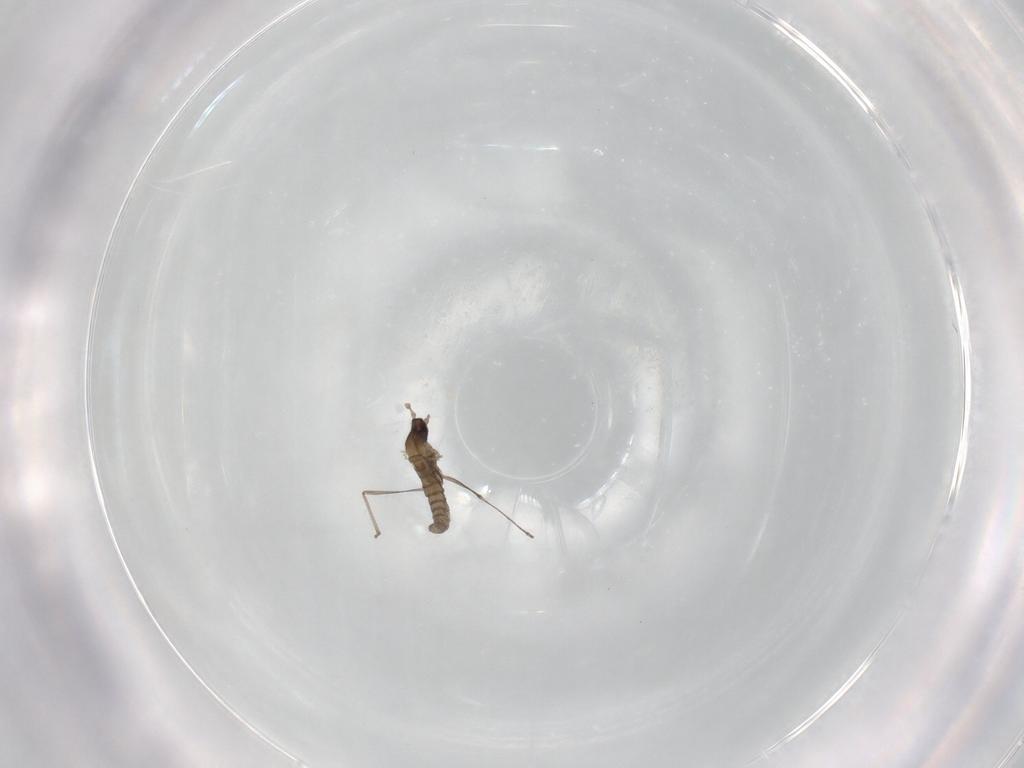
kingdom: Animalia
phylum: Arthropoda
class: Insecta
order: Diptera
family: Cecidomyiidae
